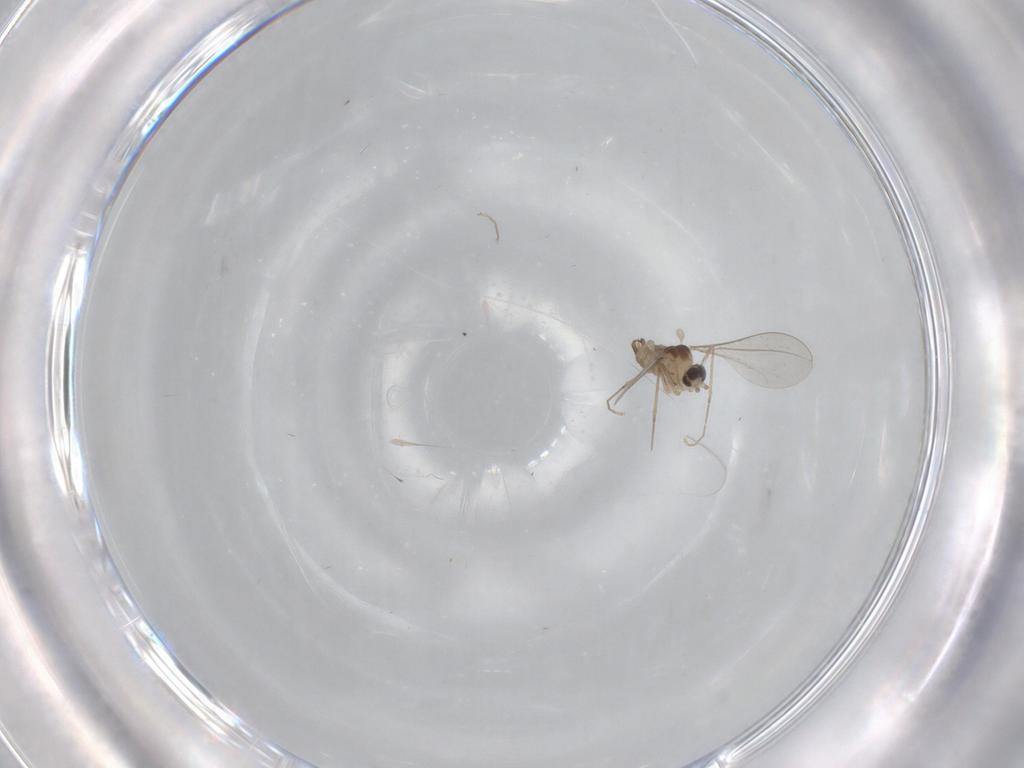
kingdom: Animalia
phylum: Arthropoda
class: Insecta
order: Diptera
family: Cecidomyiidae
